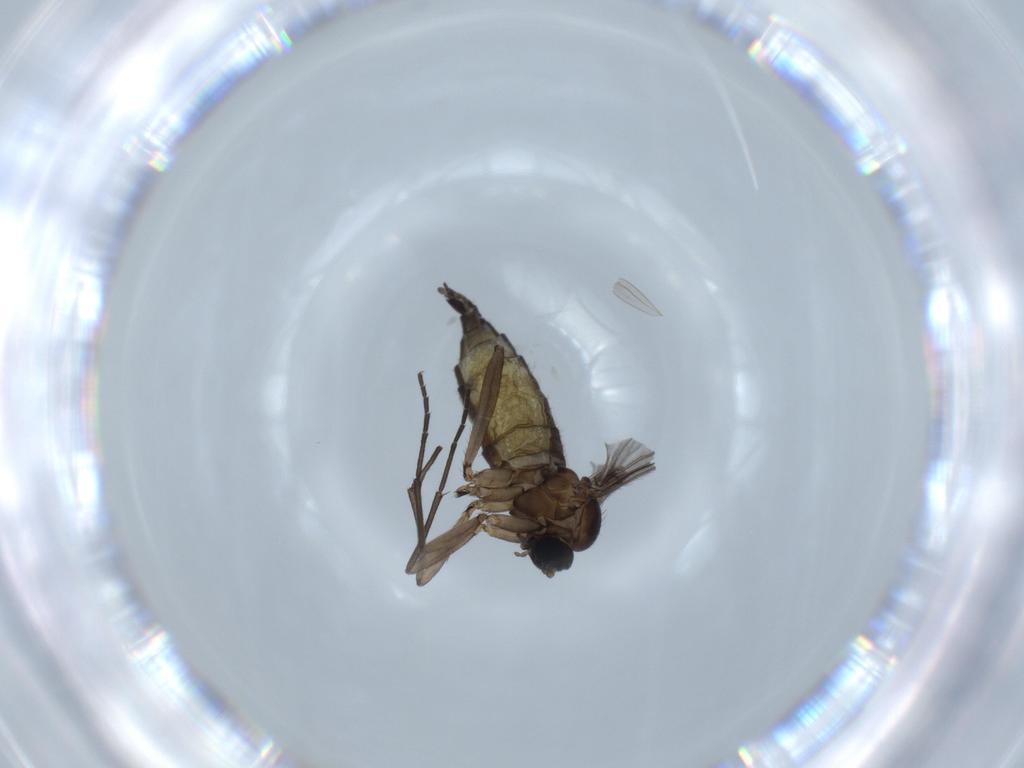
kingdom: Animalia
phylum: Arthropoda
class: Insecta
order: Diptera
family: Sciaridae
